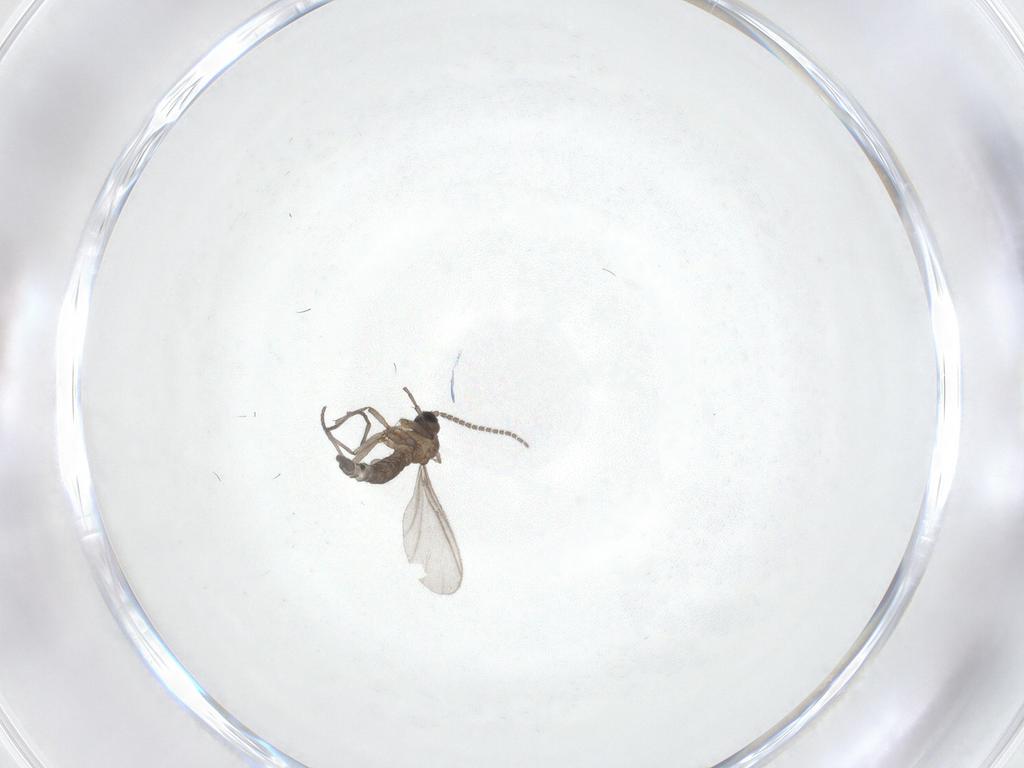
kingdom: Animalia
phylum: Arthropoda
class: Insecta
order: Diptera
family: Sciaridae
